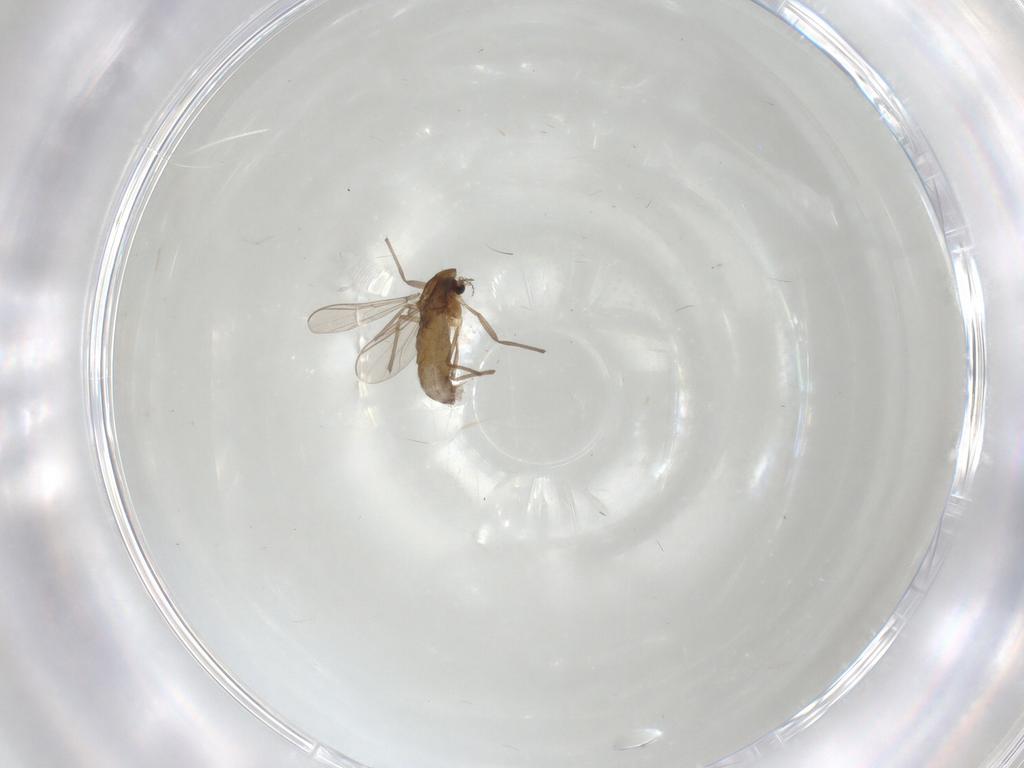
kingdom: Animalia
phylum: Arthropoda
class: Insecta
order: Diptera
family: Chironomidae
